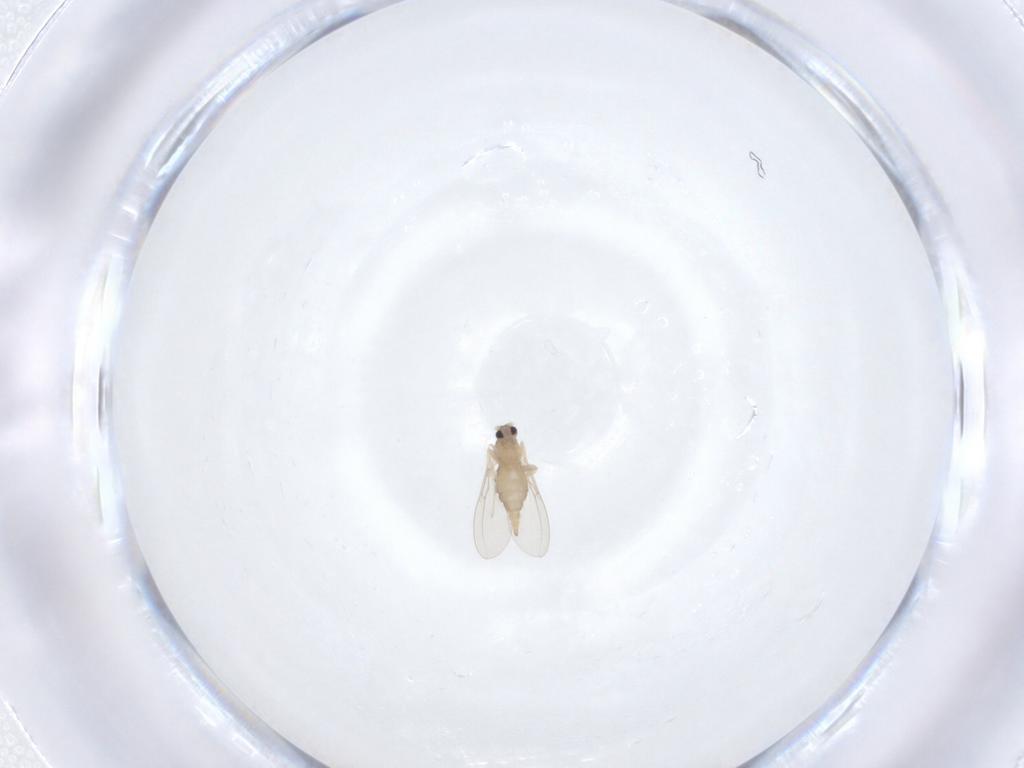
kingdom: Animalia
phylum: Arthropoda
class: Insecta
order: Diptera
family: Cecidomyiidae
